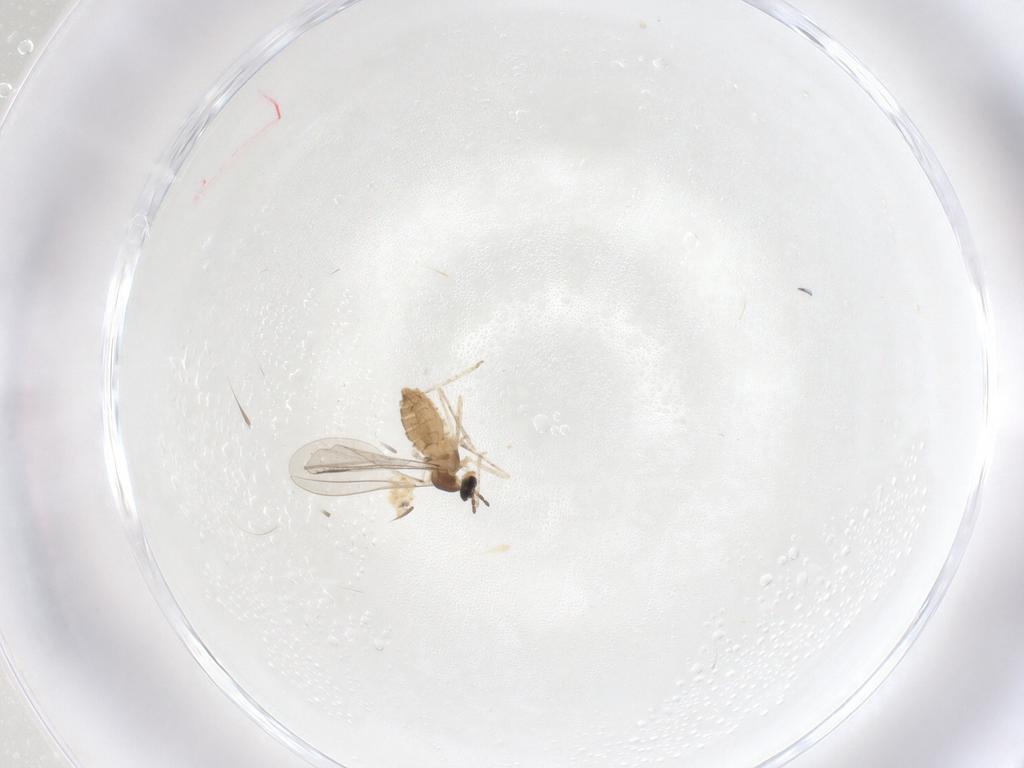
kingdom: Animalia
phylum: Arthropoda
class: Insecta
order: Diptera
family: Cecidomyiidae
